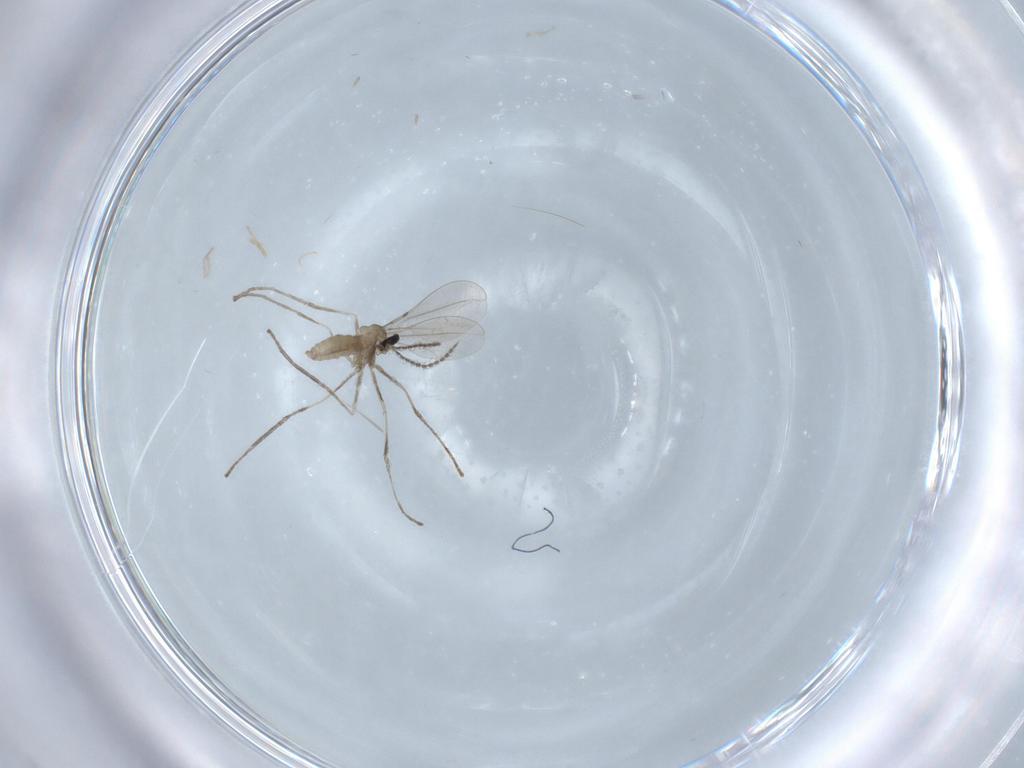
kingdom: Animalia
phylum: Arthropoda
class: Insecta
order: Diptera
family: Cecidomyiidae
